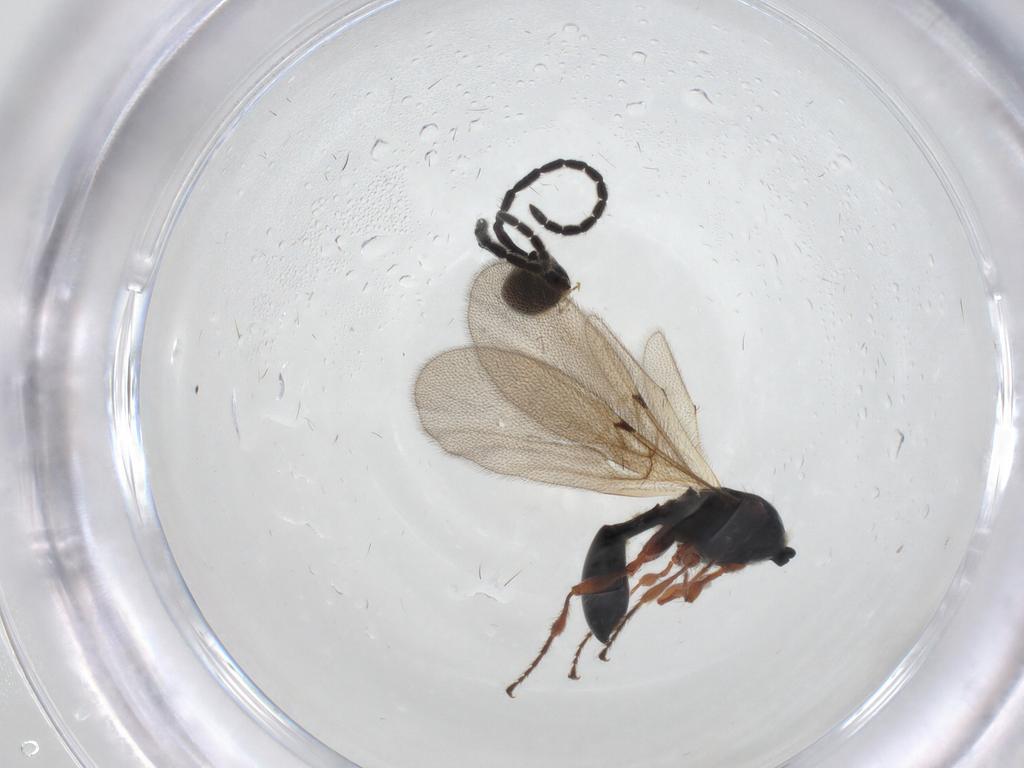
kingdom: Animalia
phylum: Arthropoda
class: Insecta
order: Hymenoptera
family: Diapriidae
